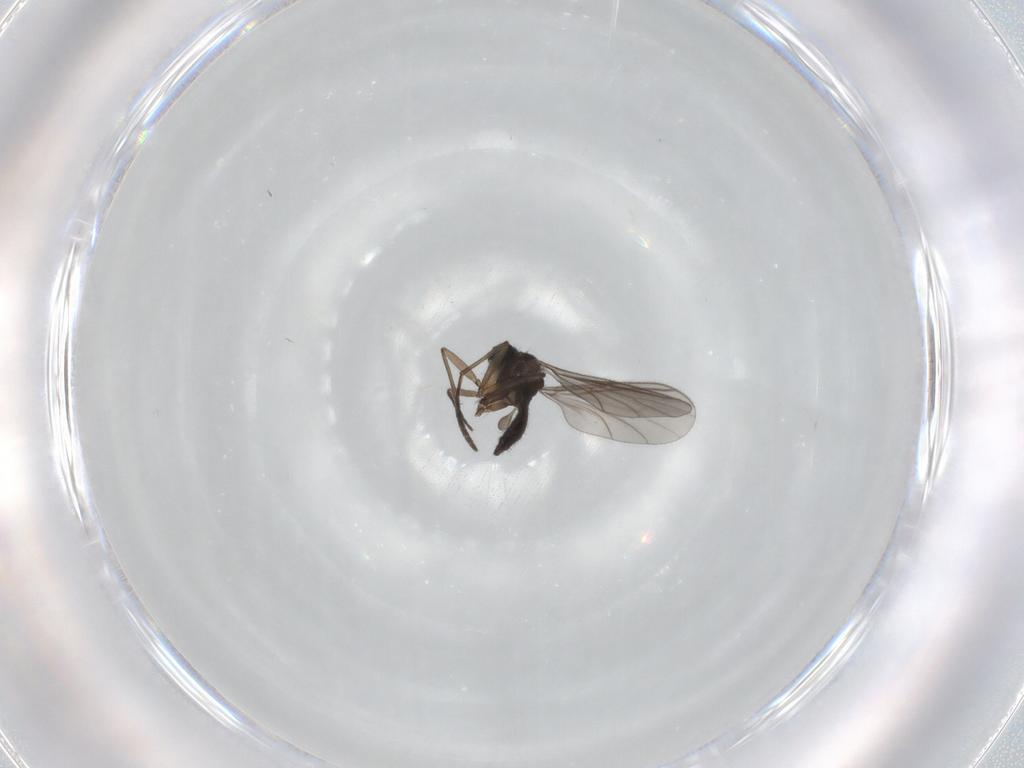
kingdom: Animalia
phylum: Arthropoda
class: Insecta
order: Diptera
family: Sciaridae
